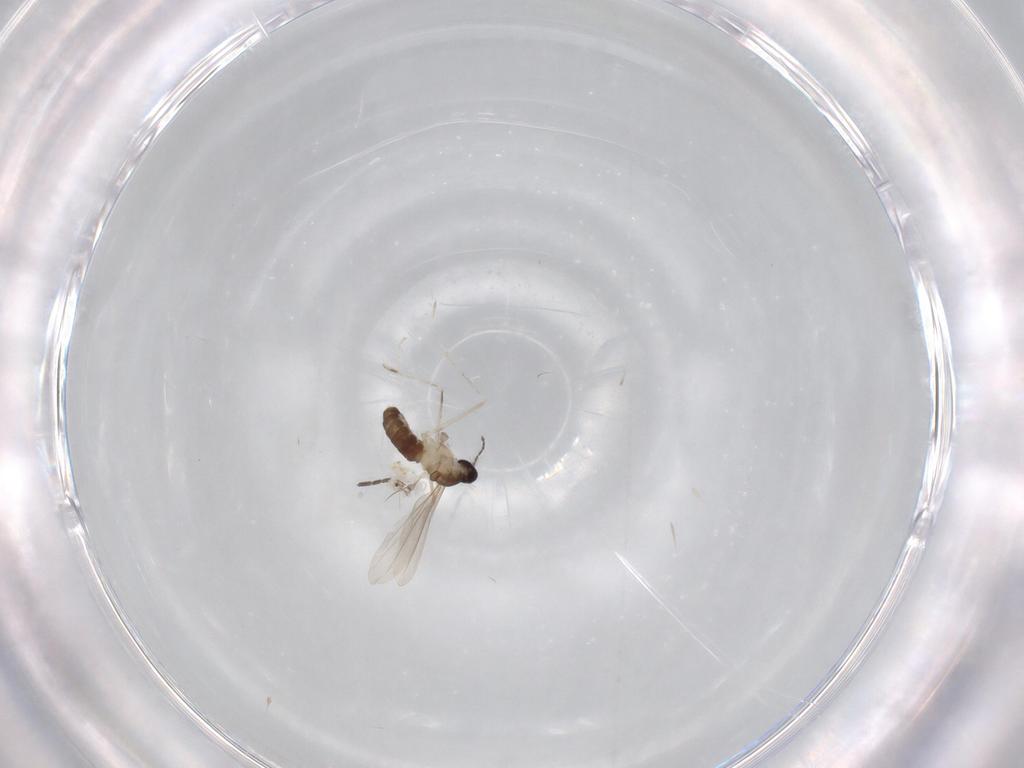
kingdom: Animalia
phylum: Arthropoda
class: Insecta
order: Diptera
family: Cecidomyiidae
